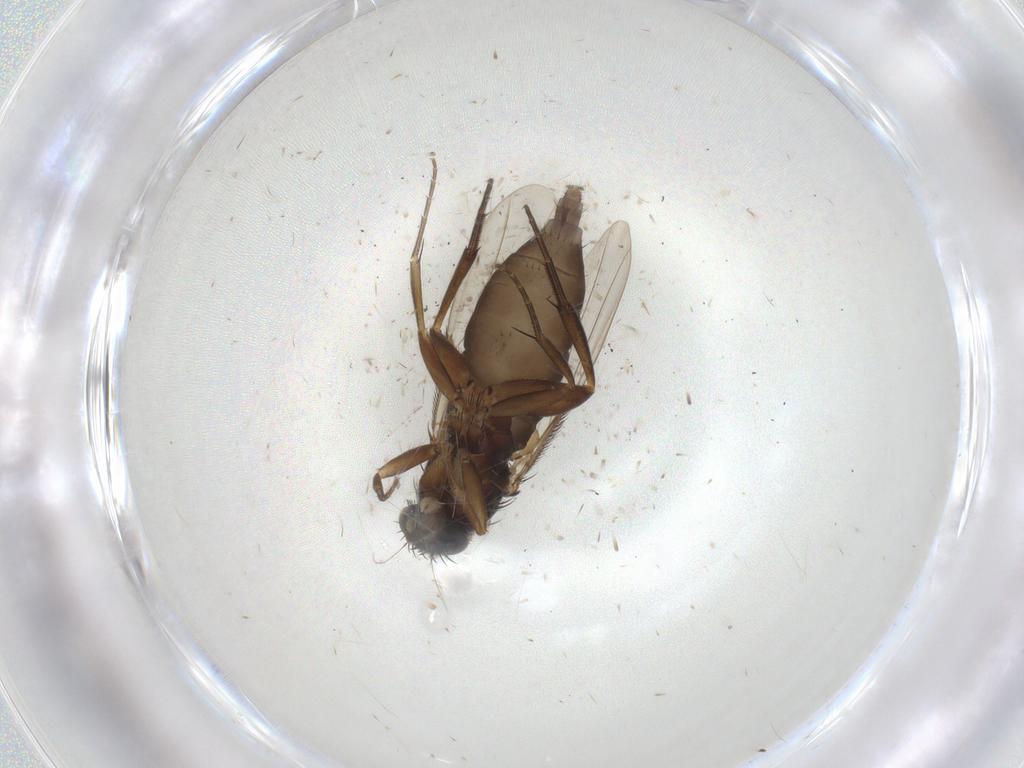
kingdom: Animalia
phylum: Arthropoda
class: Insecta
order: Diptera
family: Phoridae
